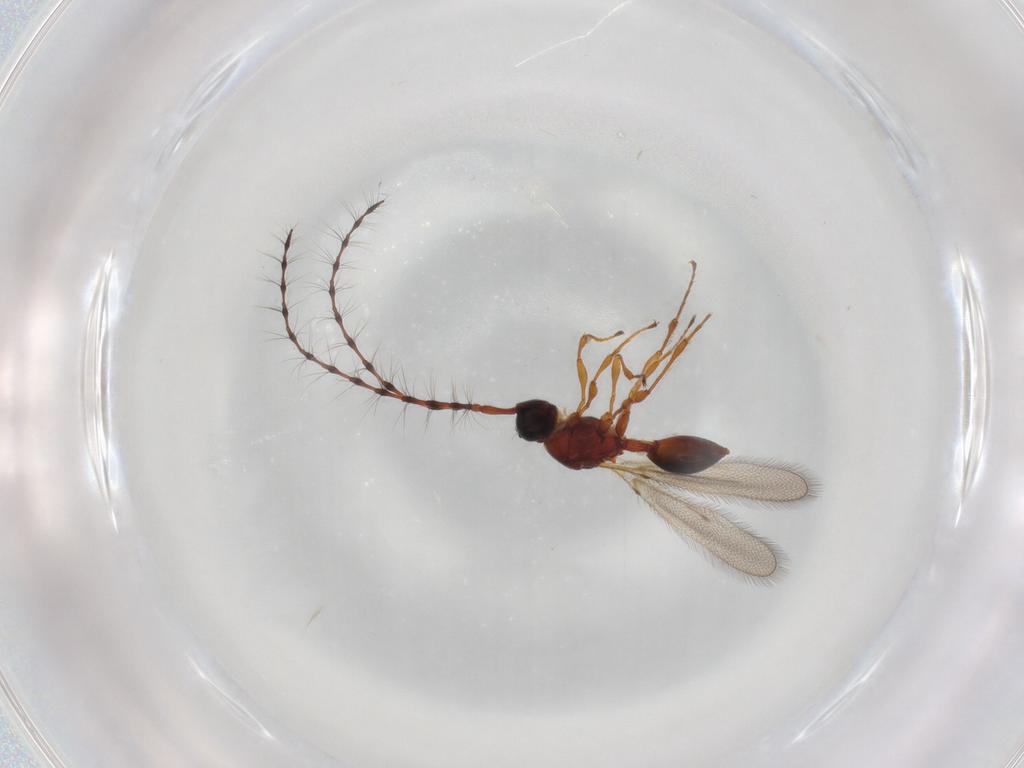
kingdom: Animalia
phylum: Arthropoda
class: Insecta
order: Hymenoptera
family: Diapriidae
